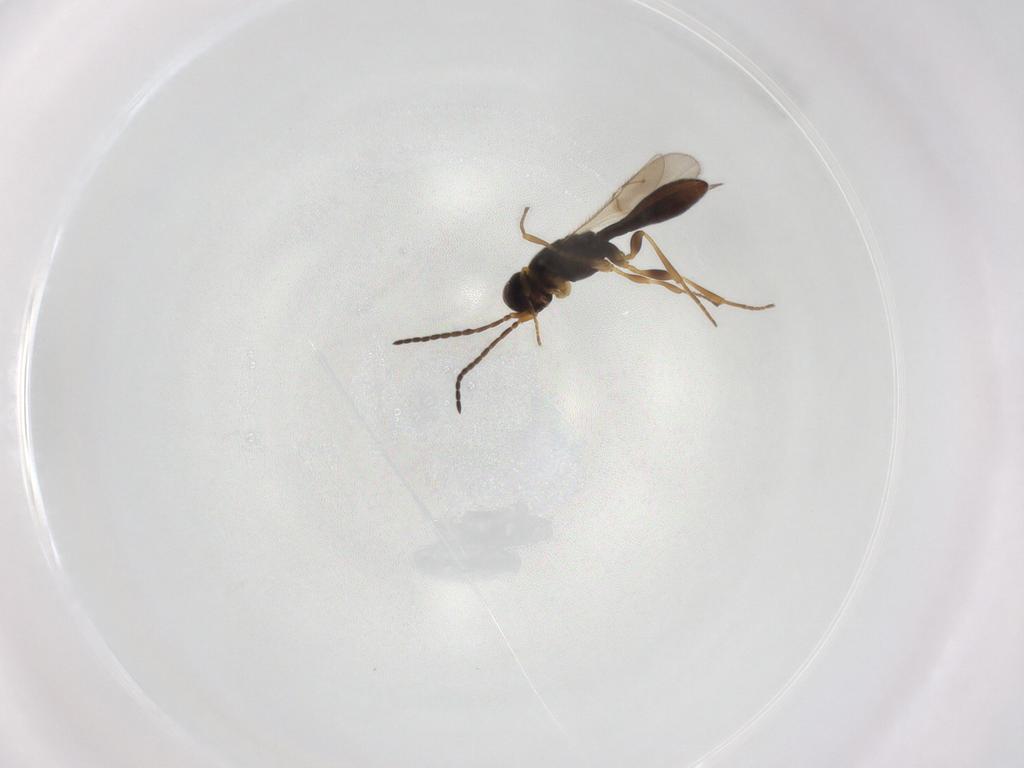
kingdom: Animalia
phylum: Arthropoda
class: Insecta
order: Hymenoptera
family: Scelionidae
